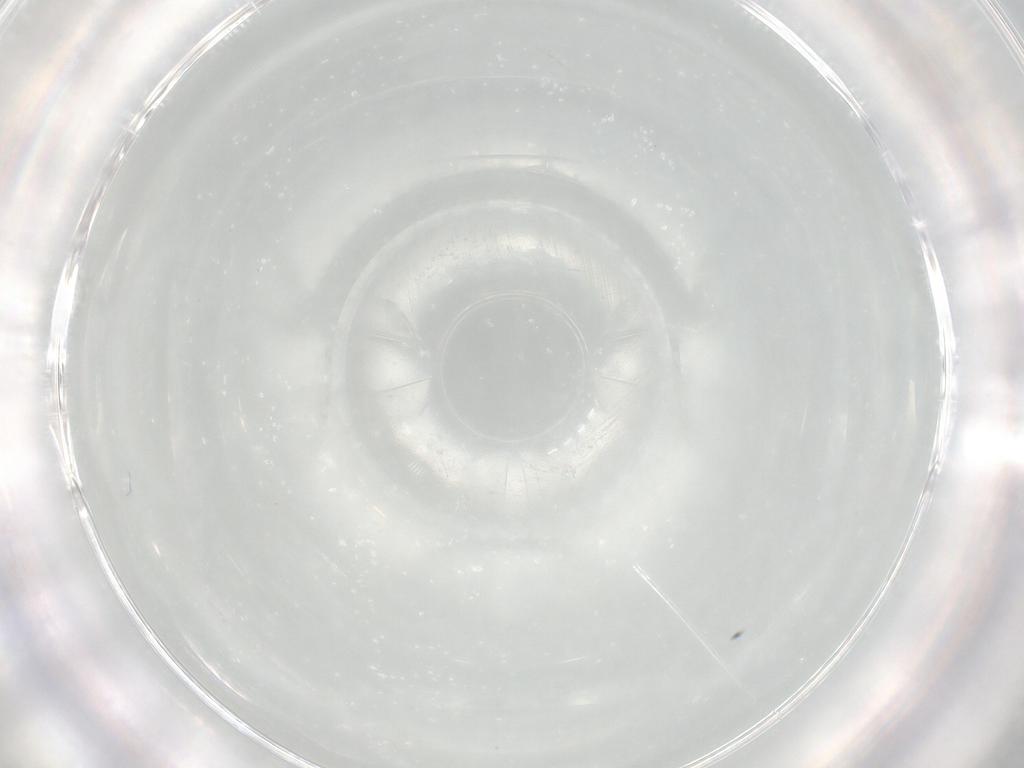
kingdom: Animalia
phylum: Arthropoda
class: Insecta
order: Diptera
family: Cecidomyiidae
